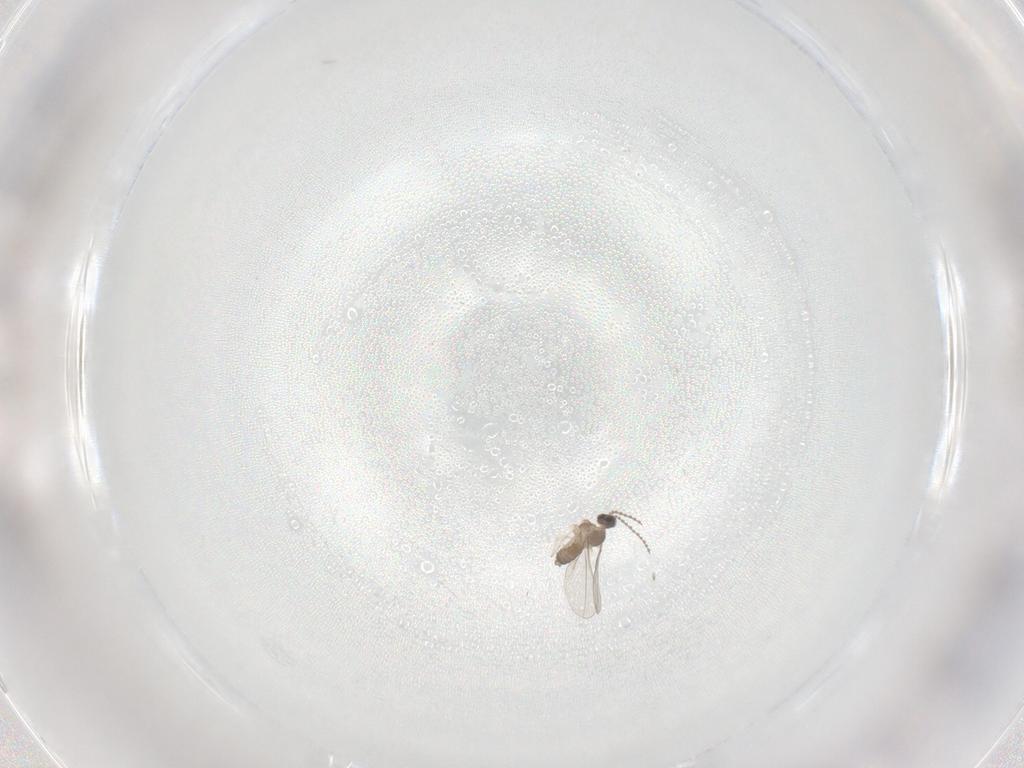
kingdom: Animalia
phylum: Arthropoda
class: Insecta
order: Diptera
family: Cecidomyiidae
